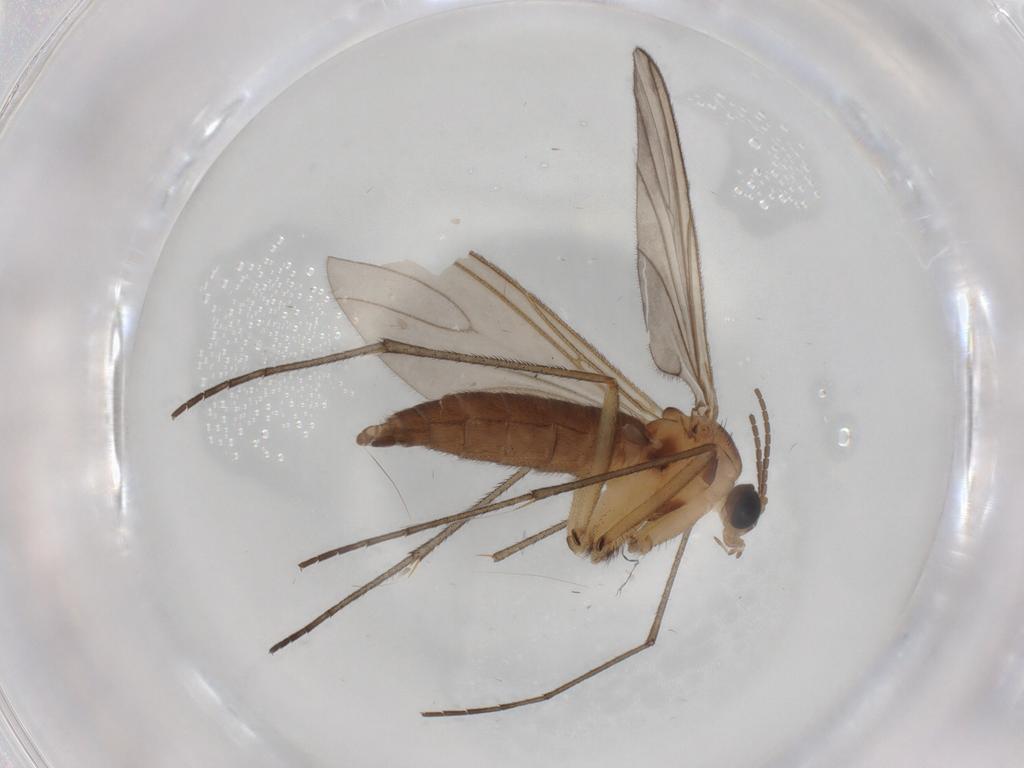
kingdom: Animalia
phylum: Arthropoda
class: Insecta
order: Diptera
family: Sciaridae
